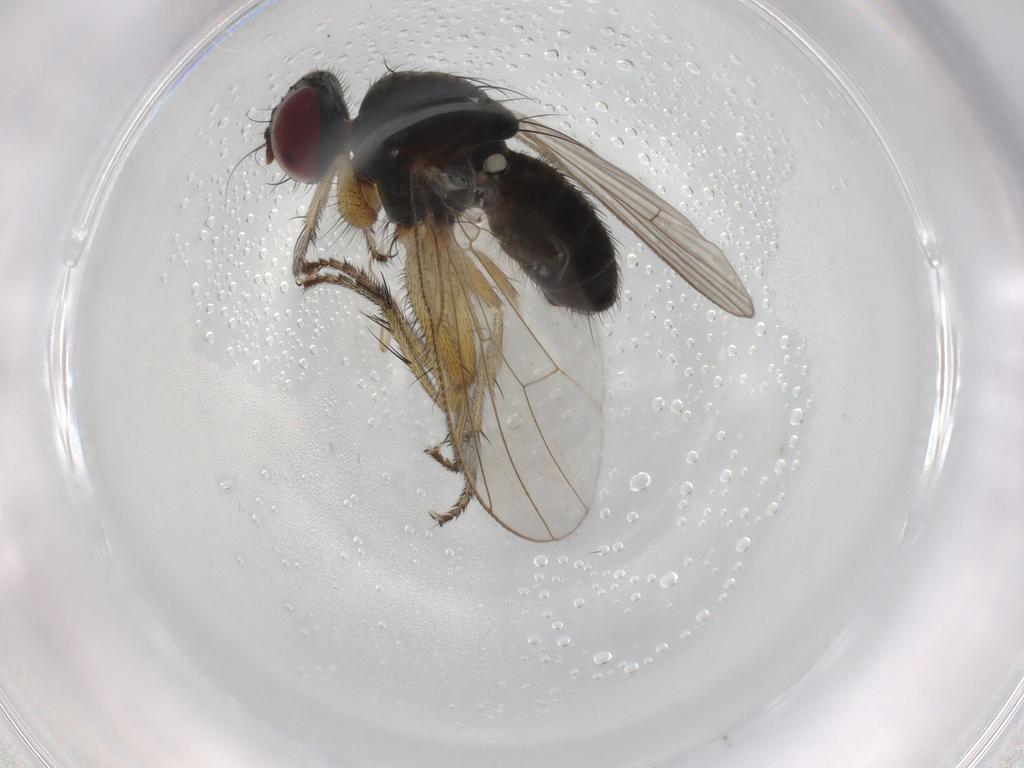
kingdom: Animalia
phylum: Arthropoda
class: Insecta
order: Diptera
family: Muscidae
